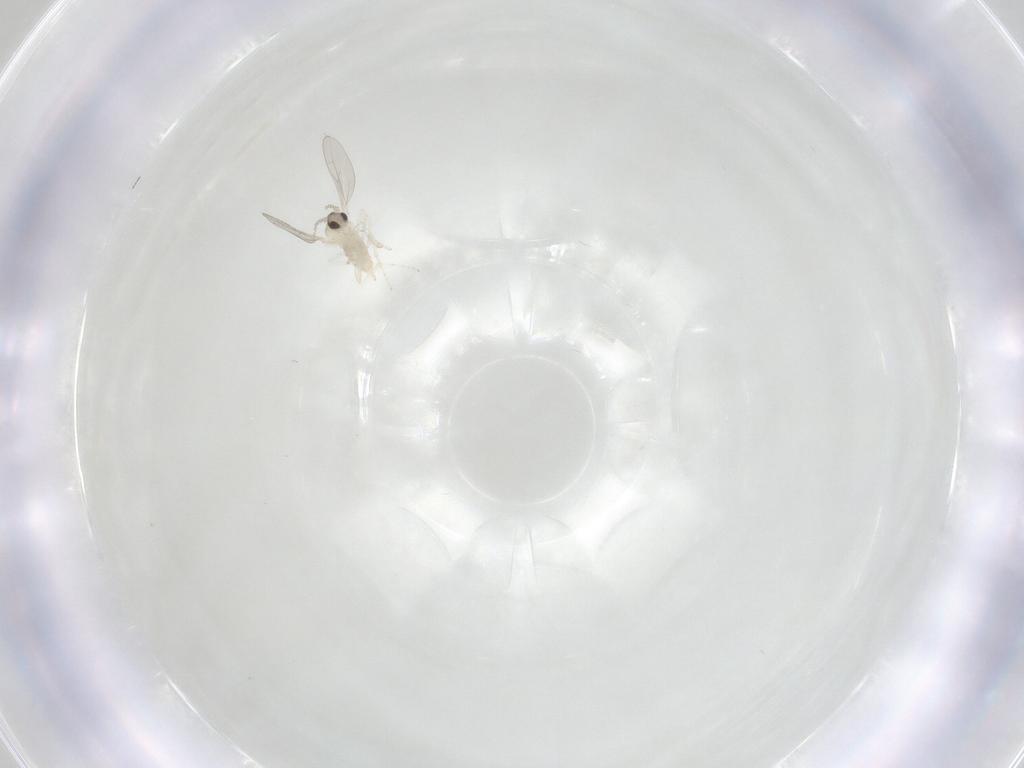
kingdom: Animalia
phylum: Arthropoda
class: Insecta
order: Diptera
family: Cecidomyiidae
